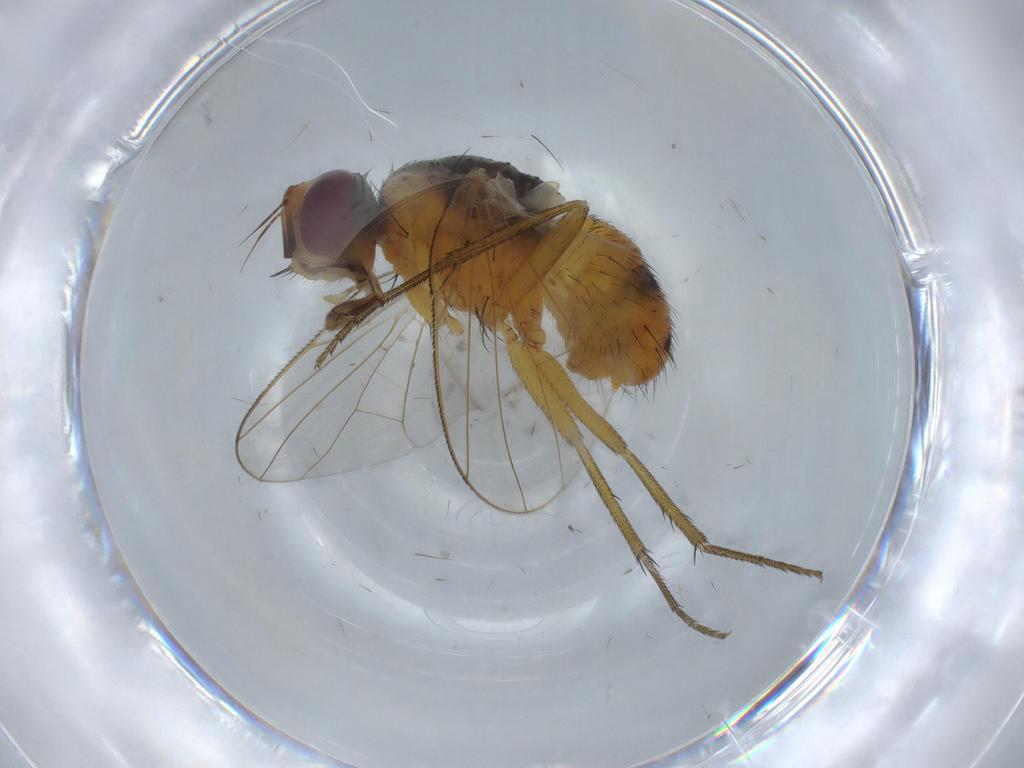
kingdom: Animalia
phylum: Arthropoda
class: Insecta
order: Diptera
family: Muscidae
